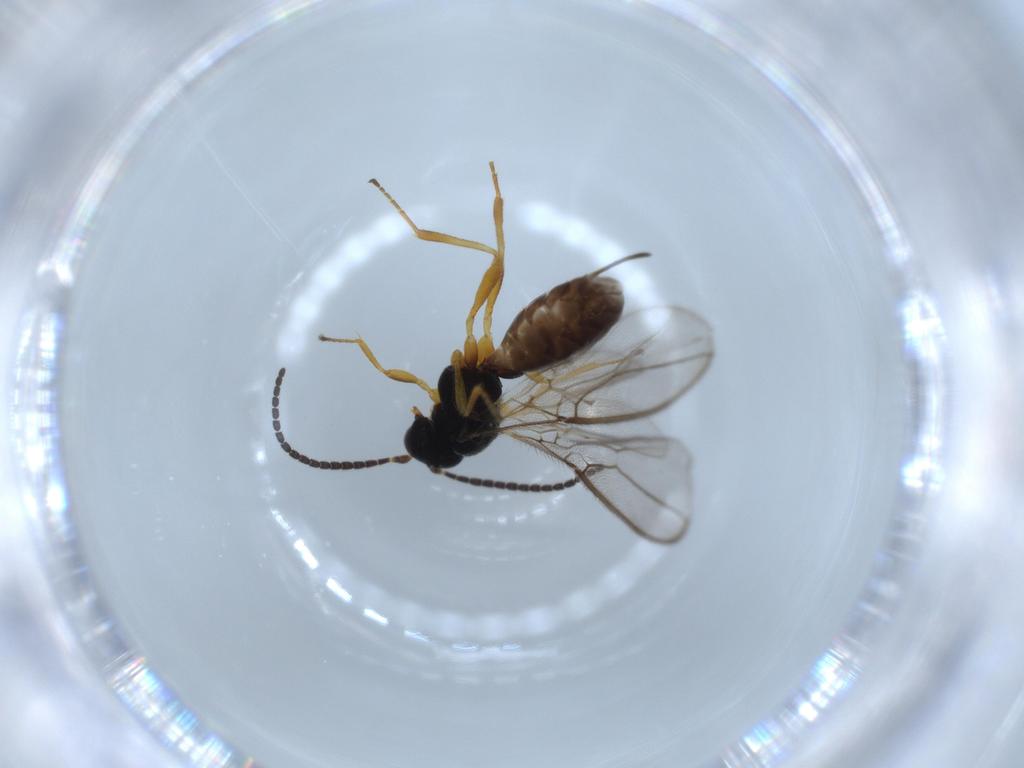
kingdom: Animalia
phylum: Arthropoda
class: Insecta
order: Hymenoptera
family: Braconidae
